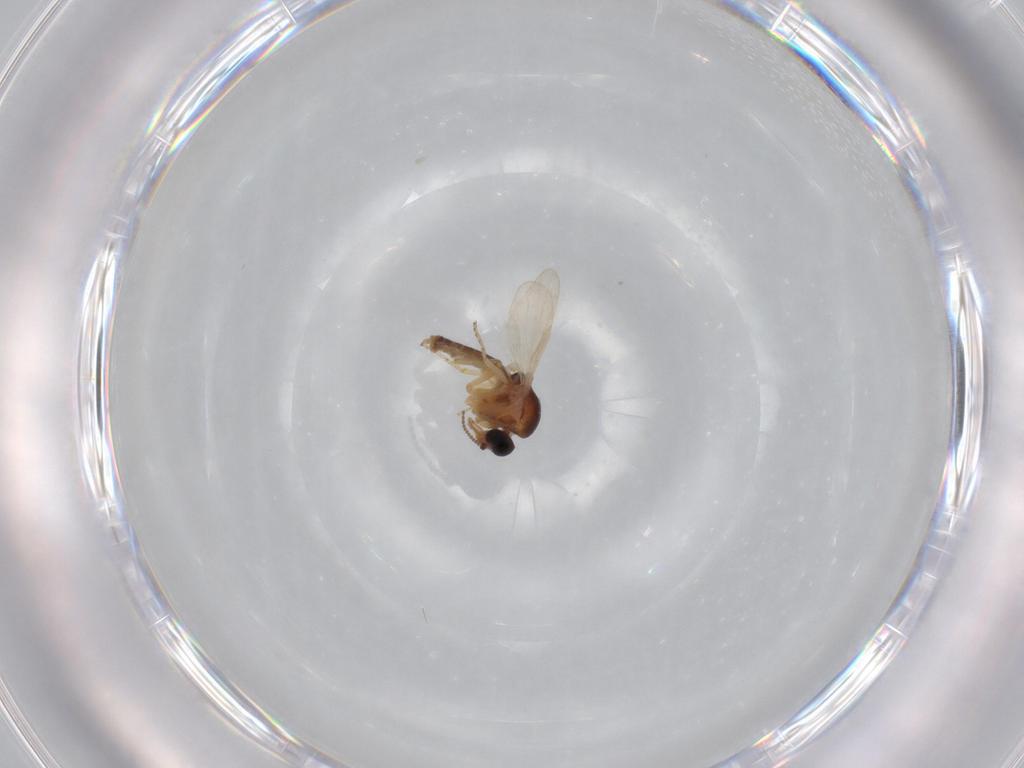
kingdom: Animalia
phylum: Arthropoda
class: Insecta
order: Diptera
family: Ceratopogonidae
